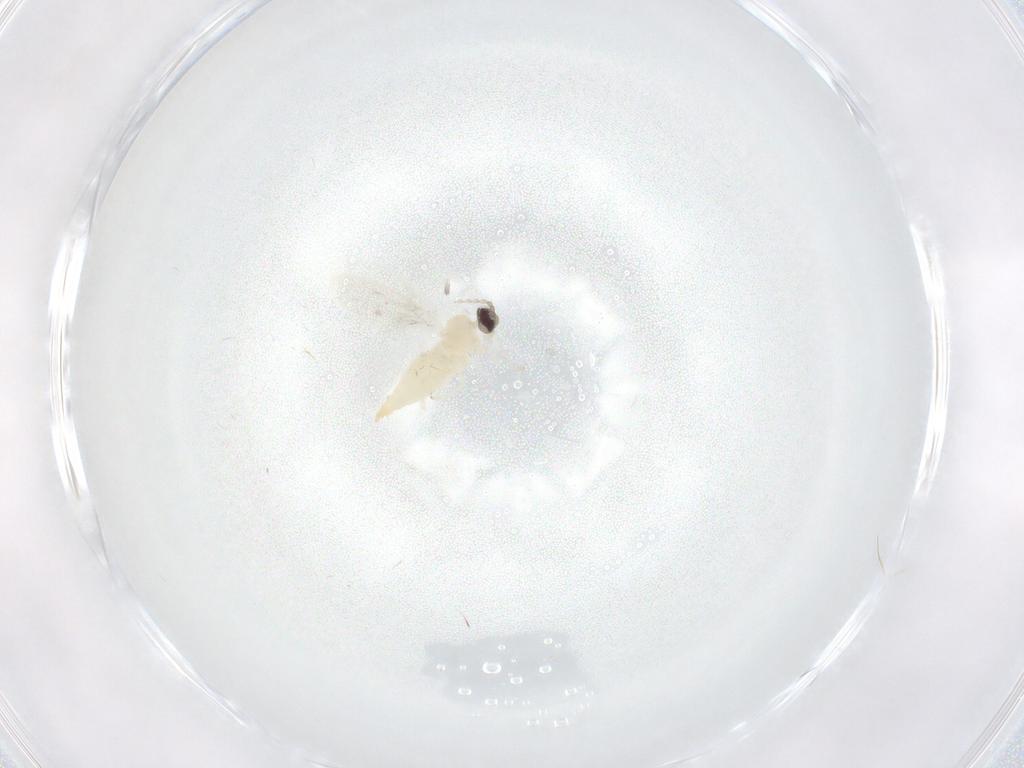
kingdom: Animalia
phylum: Arthropoda
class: Insecta
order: Diptera
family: Cecidomyiidae
